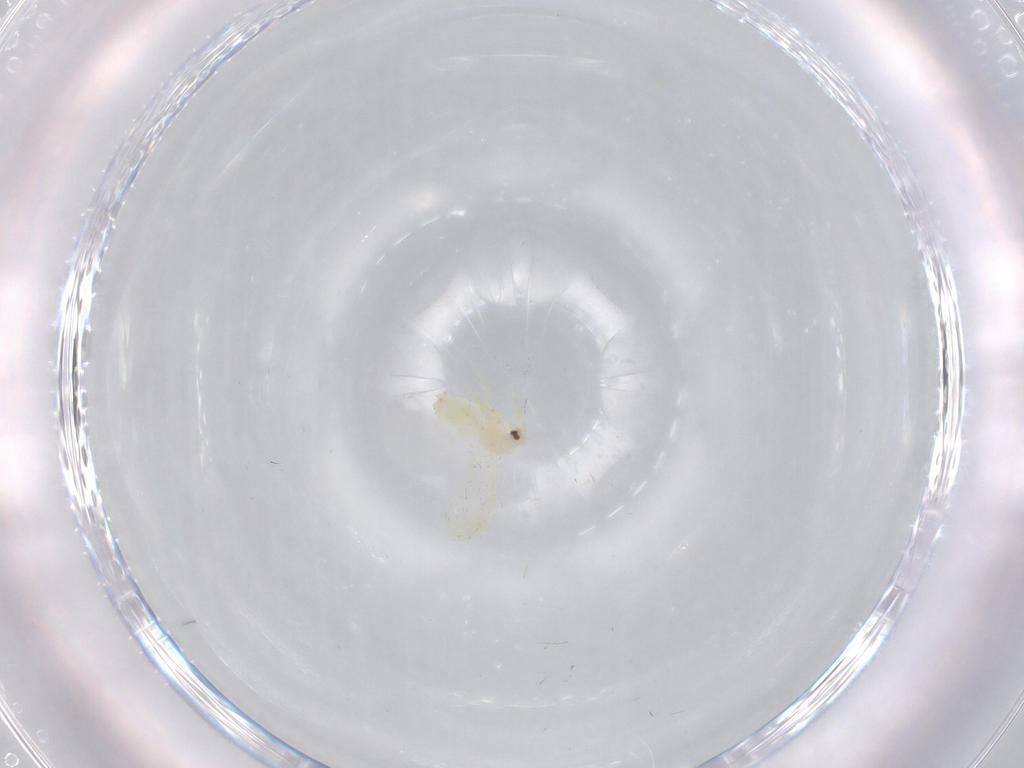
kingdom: Animalia
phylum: Arthropoda
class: Insecta
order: Hemiptera
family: Aleyrodidae
